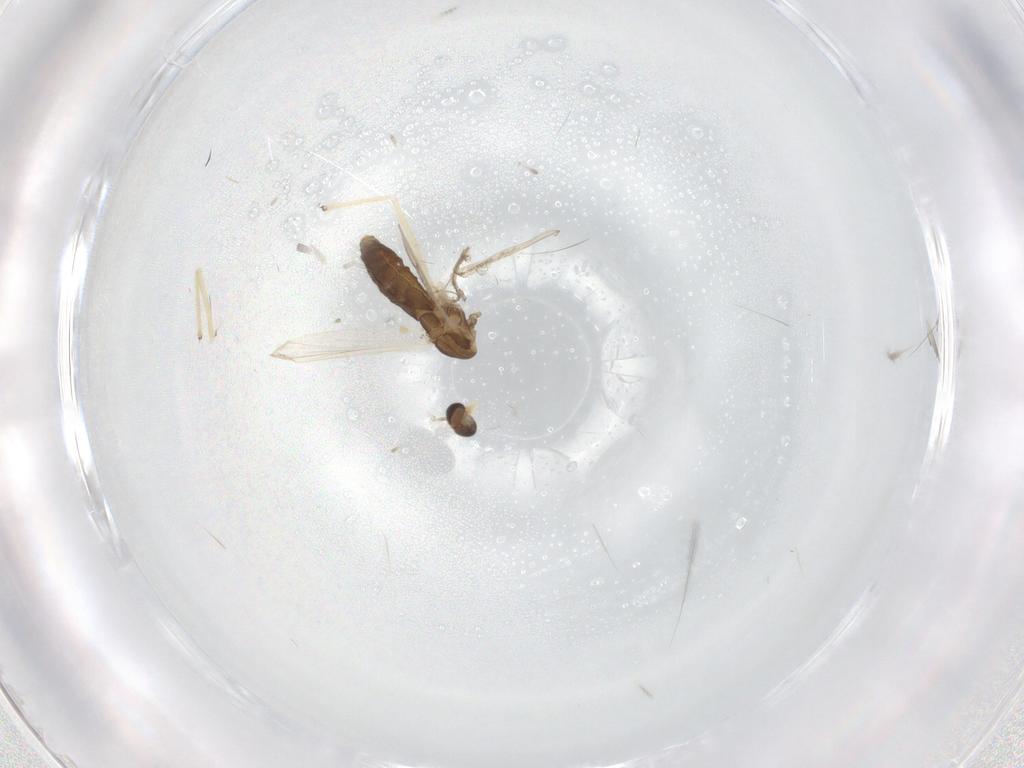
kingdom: Animalia
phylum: Arthropoda
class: Insecta
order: Diptera
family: Chironomidae
